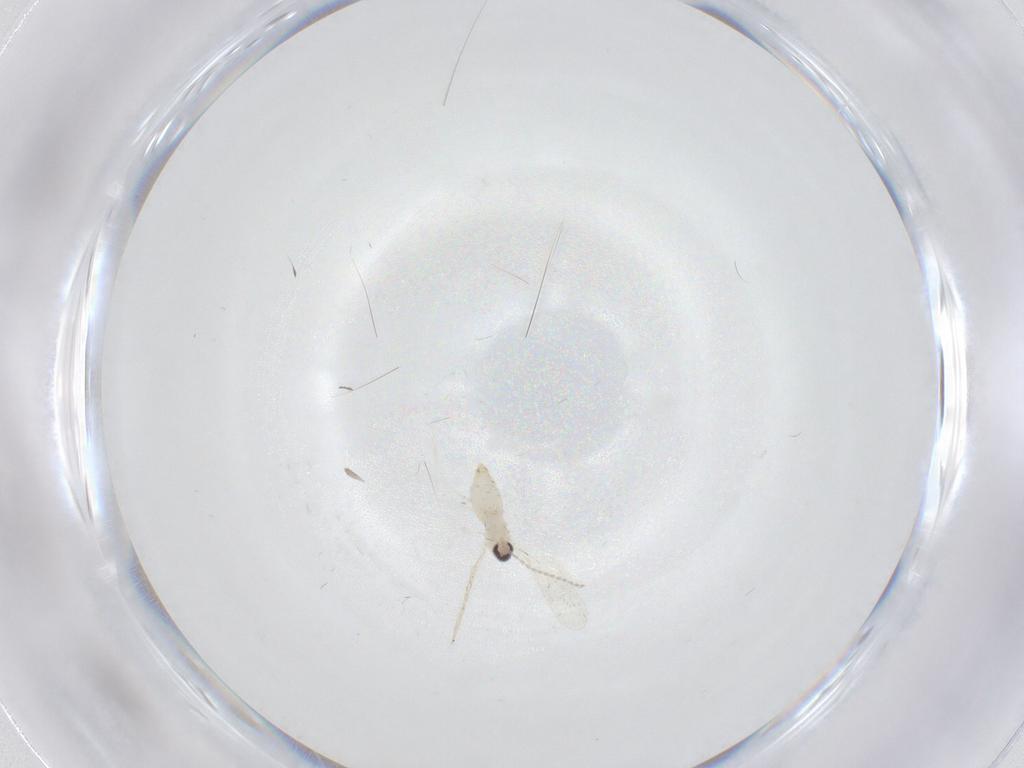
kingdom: Animalia
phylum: Arthropoda
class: Insecta
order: Diptera
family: Cecidomyiidae
